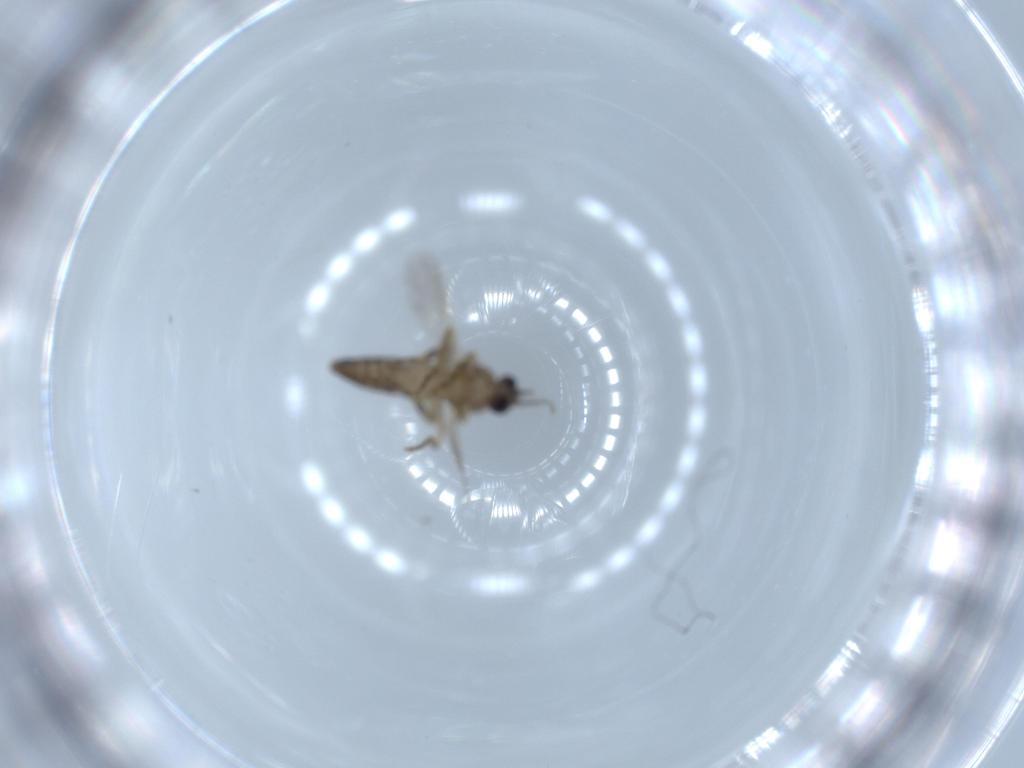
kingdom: Animalia
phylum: Arthropoda
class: Insecta
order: Diptera
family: Ceratopogonidae
